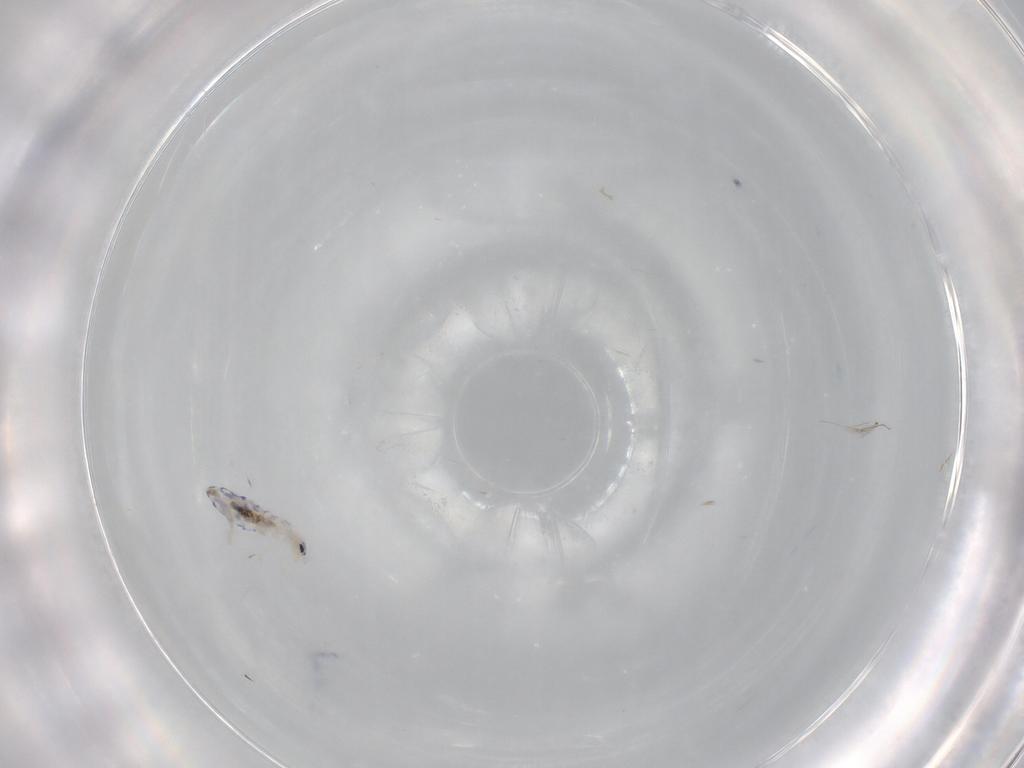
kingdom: Animalia
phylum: Arthropoda
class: Collembola
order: Entomobryomorpha
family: Entomobryidae
